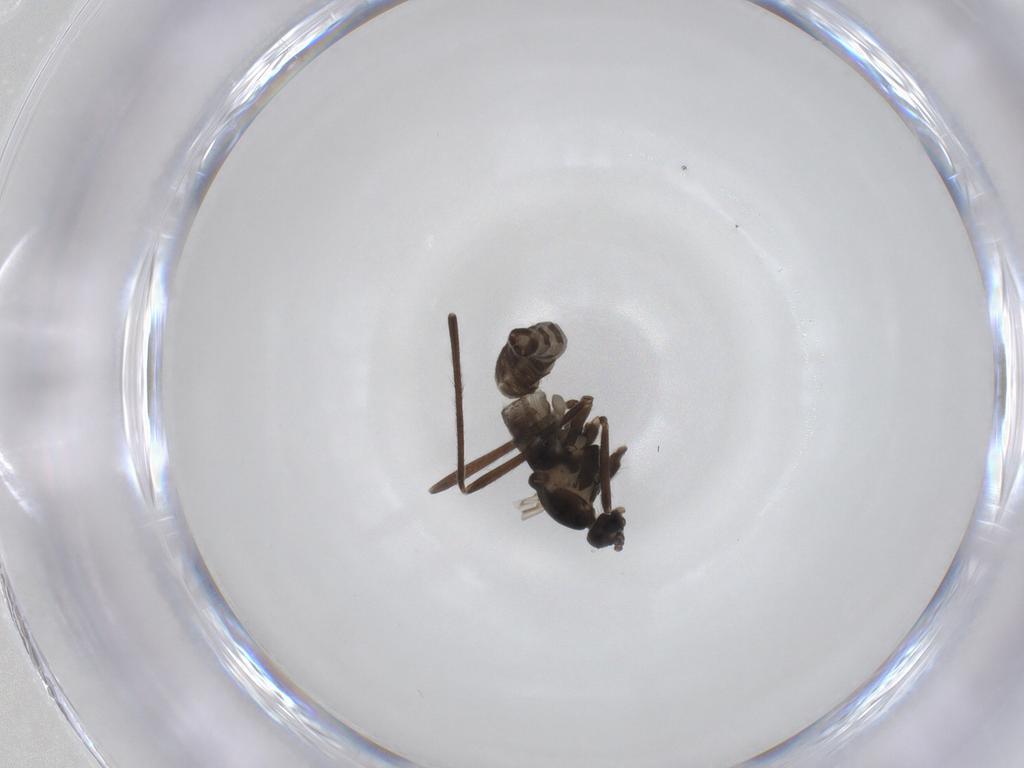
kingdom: Animalia
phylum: Arthropoda
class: Insecta
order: Diptera
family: Cecidomyiidae
